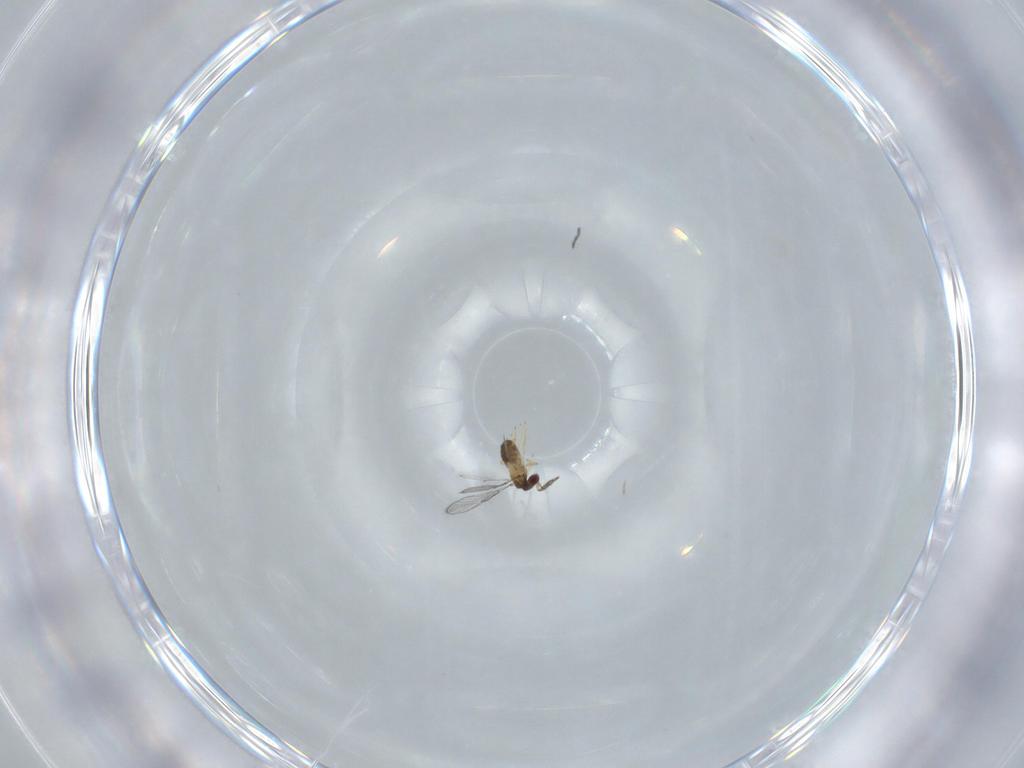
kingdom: Animalia
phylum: Arthropoda
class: Insecta
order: Hymenoptera
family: Trichogrammatidae
